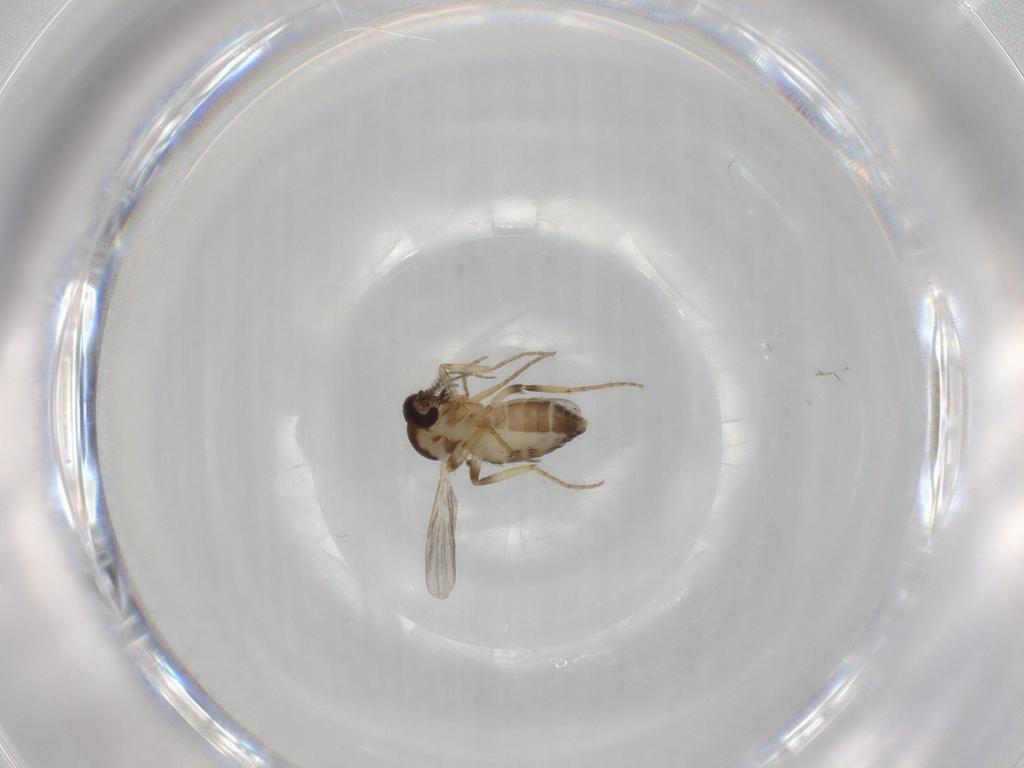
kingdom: Animalia
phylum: Arthropoda
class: Insecta
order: Diptera
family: Ceratopogonidae
